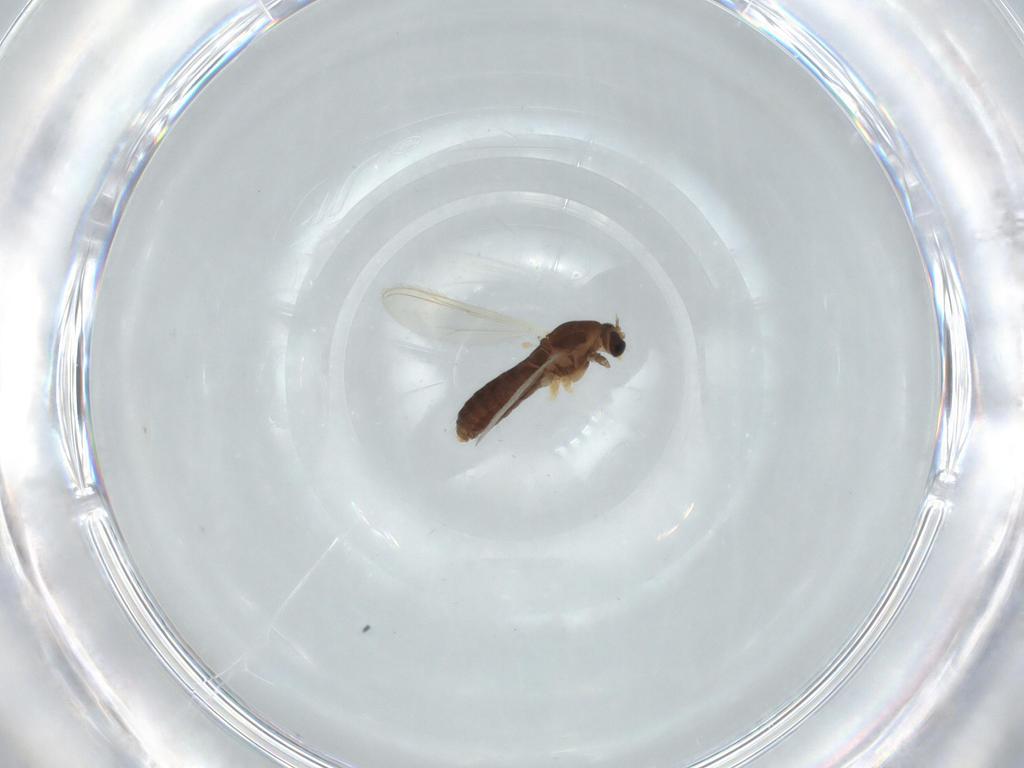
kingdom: Animalia
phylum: Arthropoda
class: Insecta
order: Diptera
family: Chironomidae
